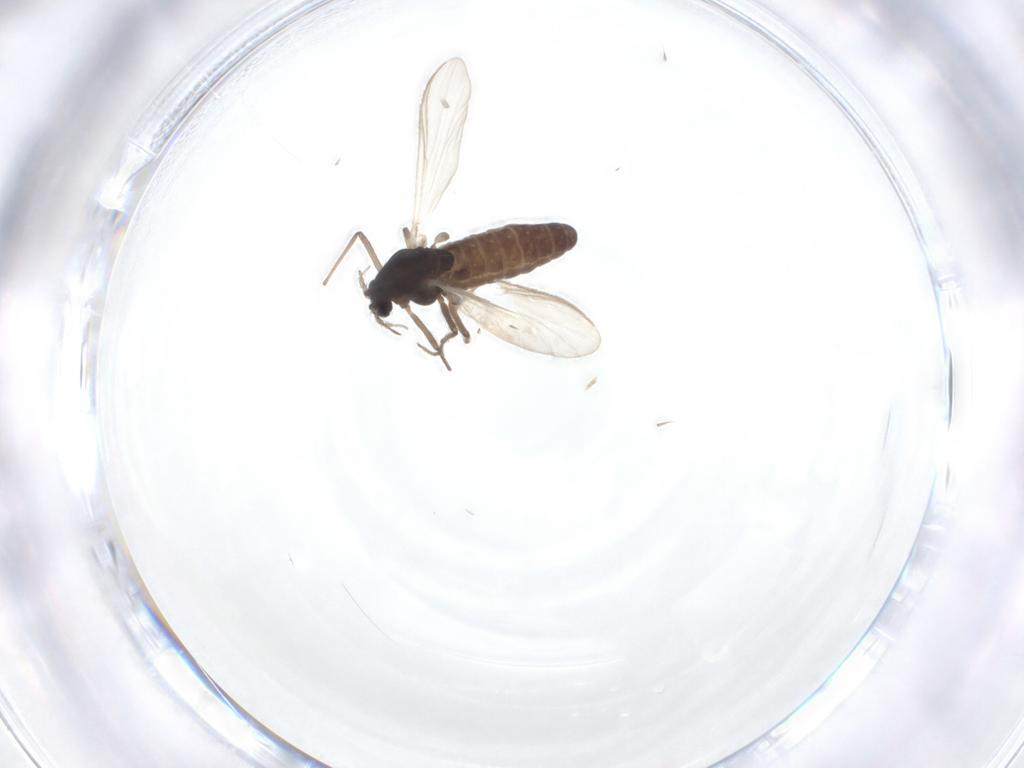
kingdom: Animalia
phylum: Arthropoda
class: Insecta
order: Diptera
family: Chironomidae
